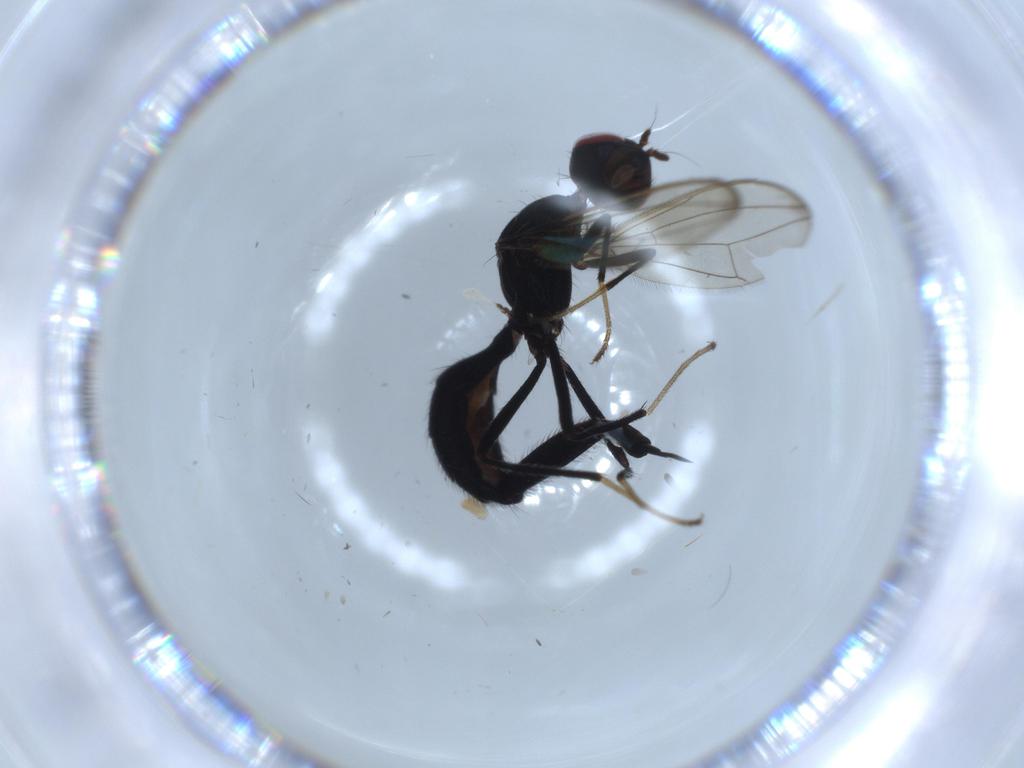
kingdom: Animalia
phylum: Arthropoda
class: Insecta
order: Diptera
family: Richardiidae
